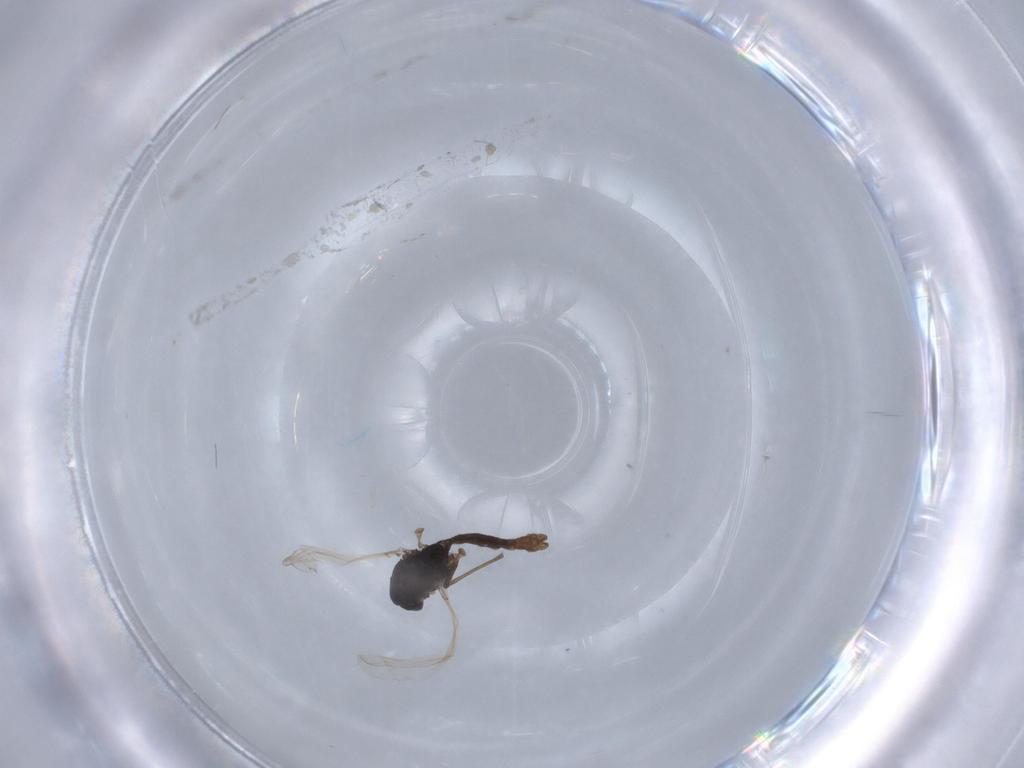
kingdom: Animalia
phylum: Arthropoda
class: Insecta
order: Diptera
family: Chironomidae
